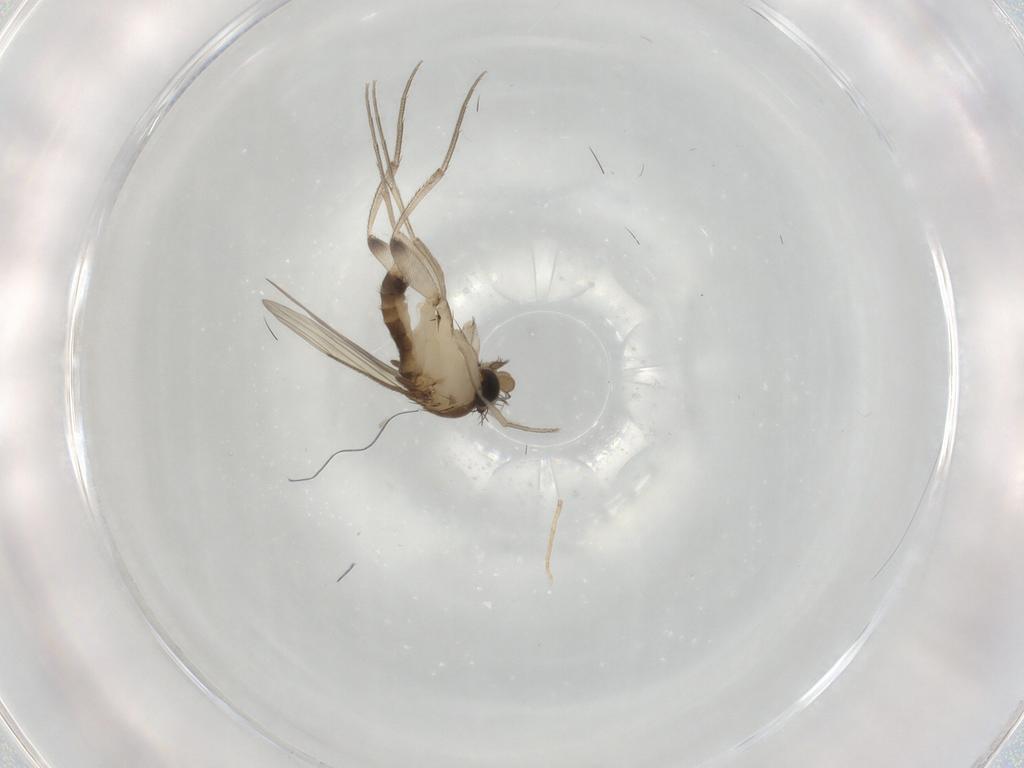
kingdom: Animalia
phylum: Arthropoda
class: Insecta
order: Diptera
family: Phoridae
